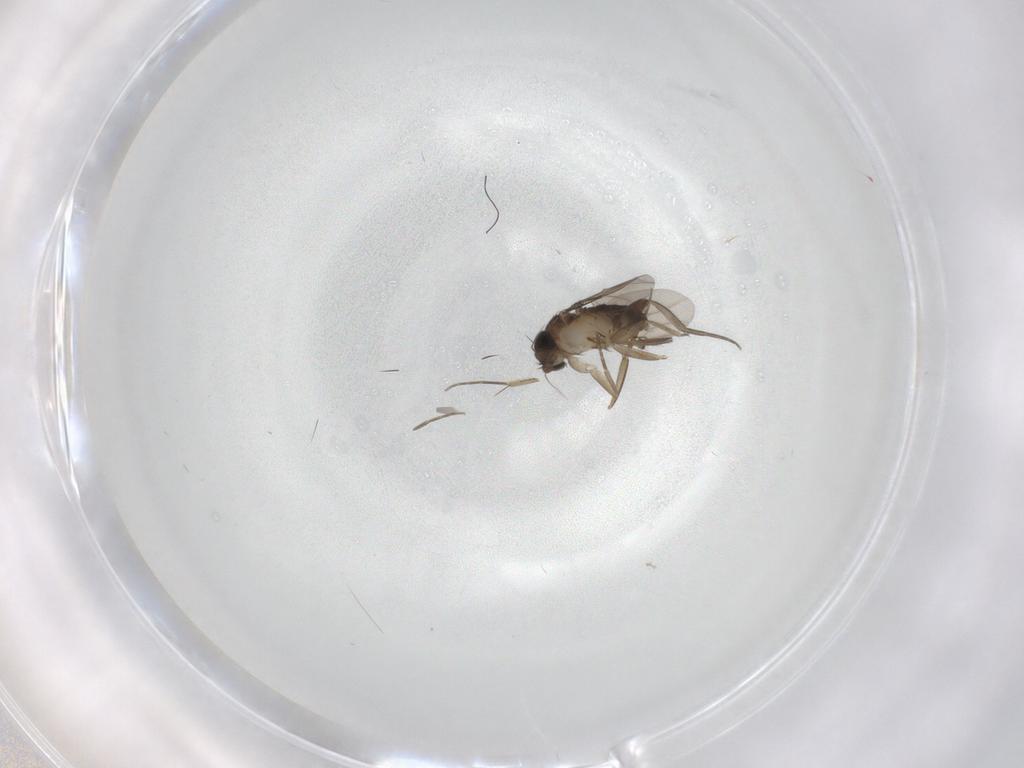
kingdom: Animalia
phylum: Arthropoda
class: Insecta
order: Diptera
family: Phoridae
